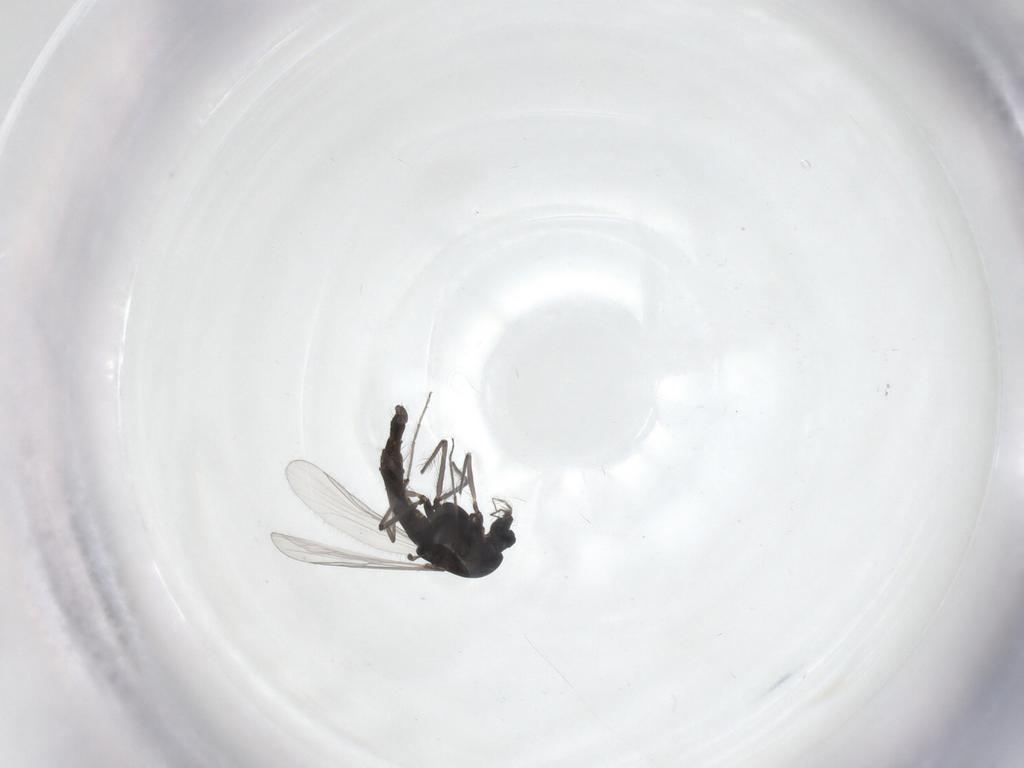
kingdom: Animalia
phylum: Arthropoda
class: Insecta
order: Diptera
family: Chironomidae
